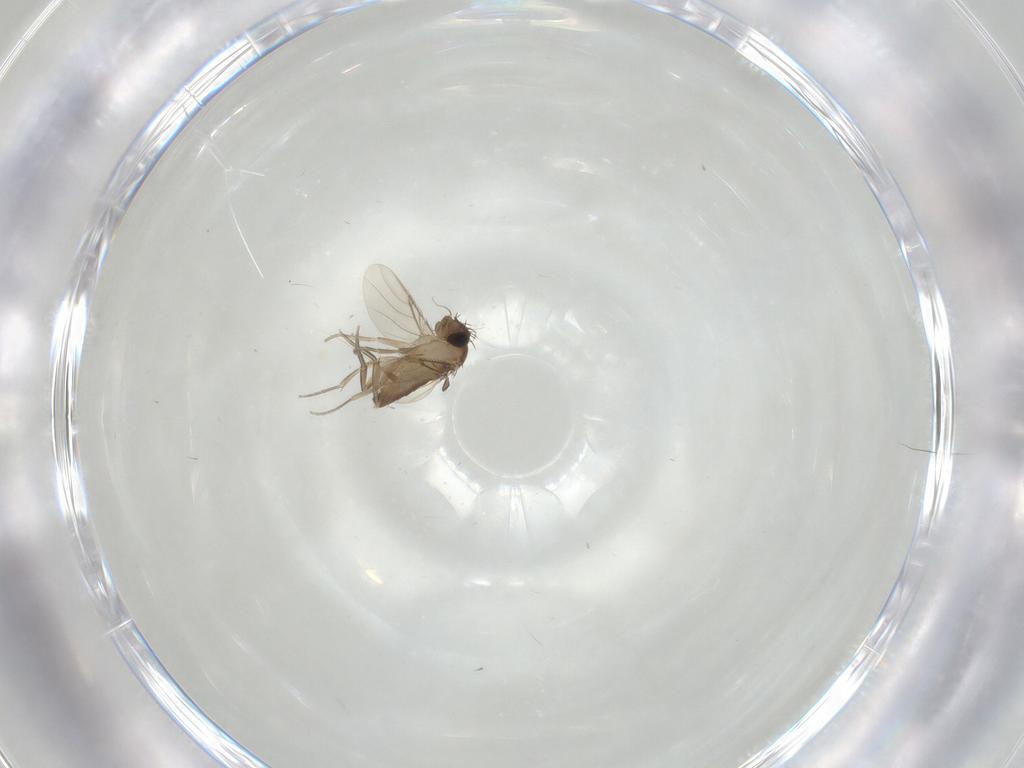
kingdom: Animalia
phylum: Arthropoda
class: Insecta
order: Diptera
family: Phoridae
